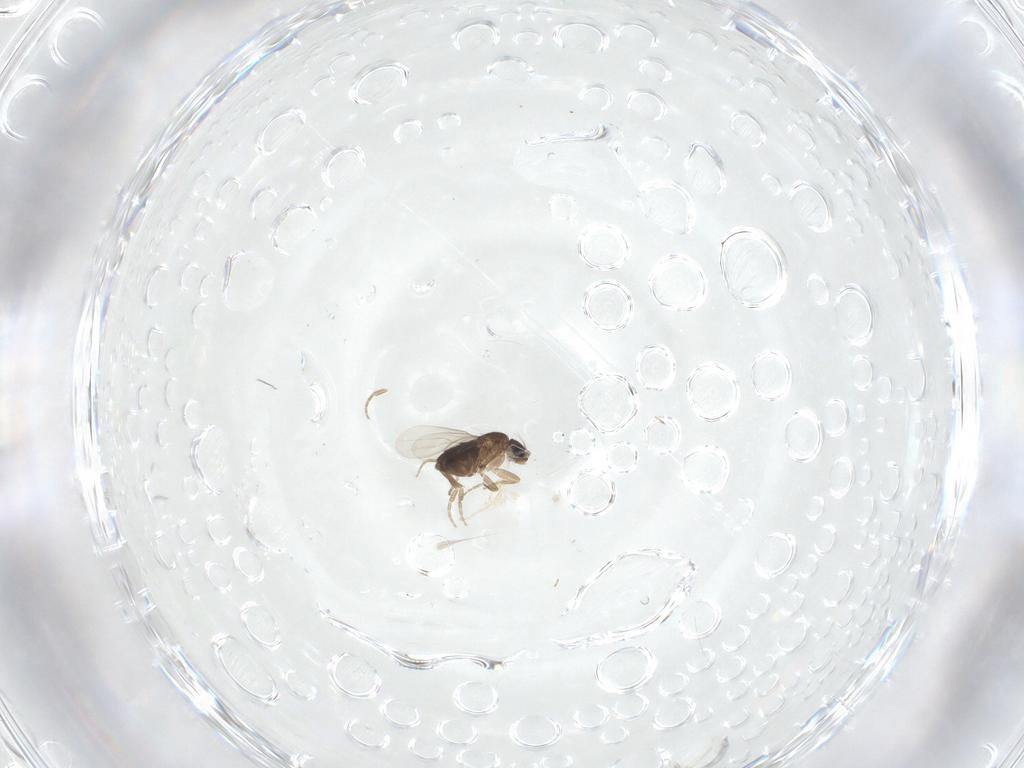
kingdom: Animalia
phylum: Arthropoda
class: Insecta
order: Diptera
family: Phoridae
